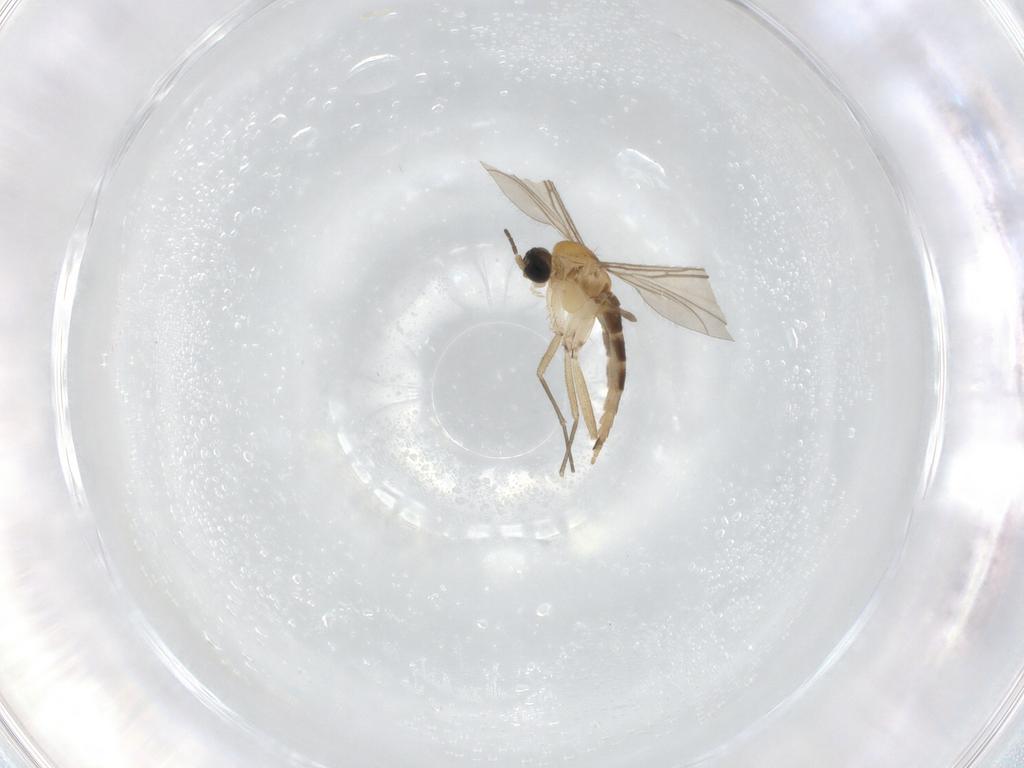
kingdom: Animalia
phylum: Arthropoda
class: Insecta
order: Diptera
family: Sciaridae
